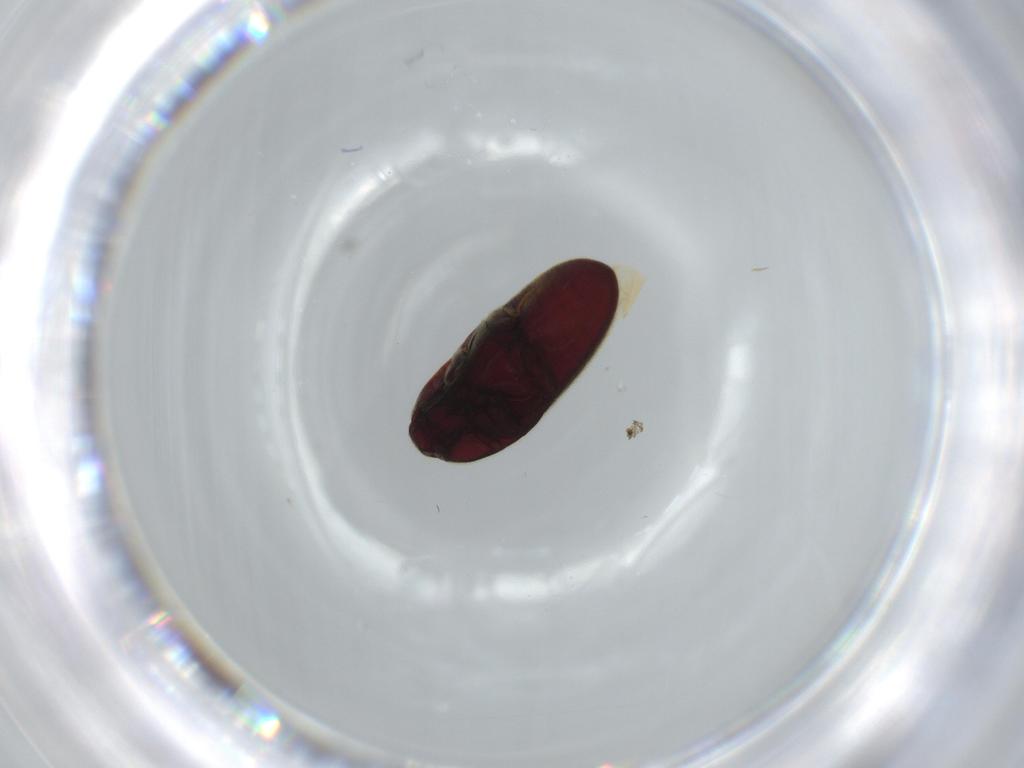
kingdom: Animalia
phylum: Arthropoda
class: Insecta
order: Coleoptera
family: Throscidae
